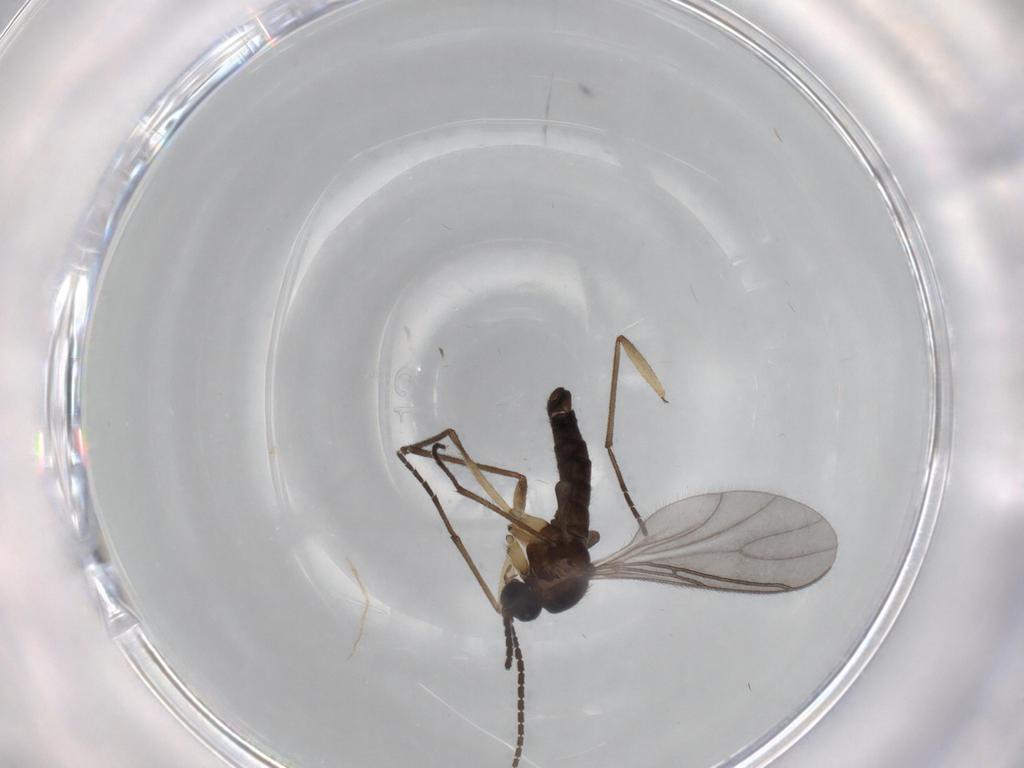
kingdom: Animalia
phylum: Arthropoda
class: Insecta
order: Diptera
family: Sciaridae
